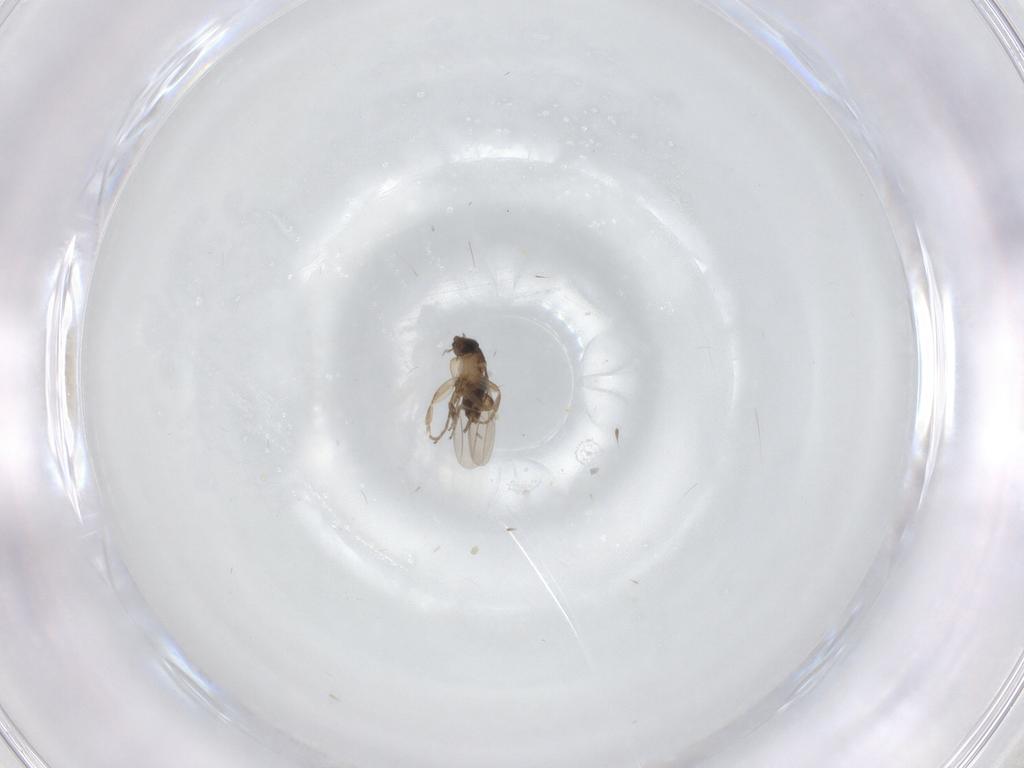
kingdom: Animalia
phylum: Arthropoda
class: Insecta
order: Diptera
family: Phoridae
